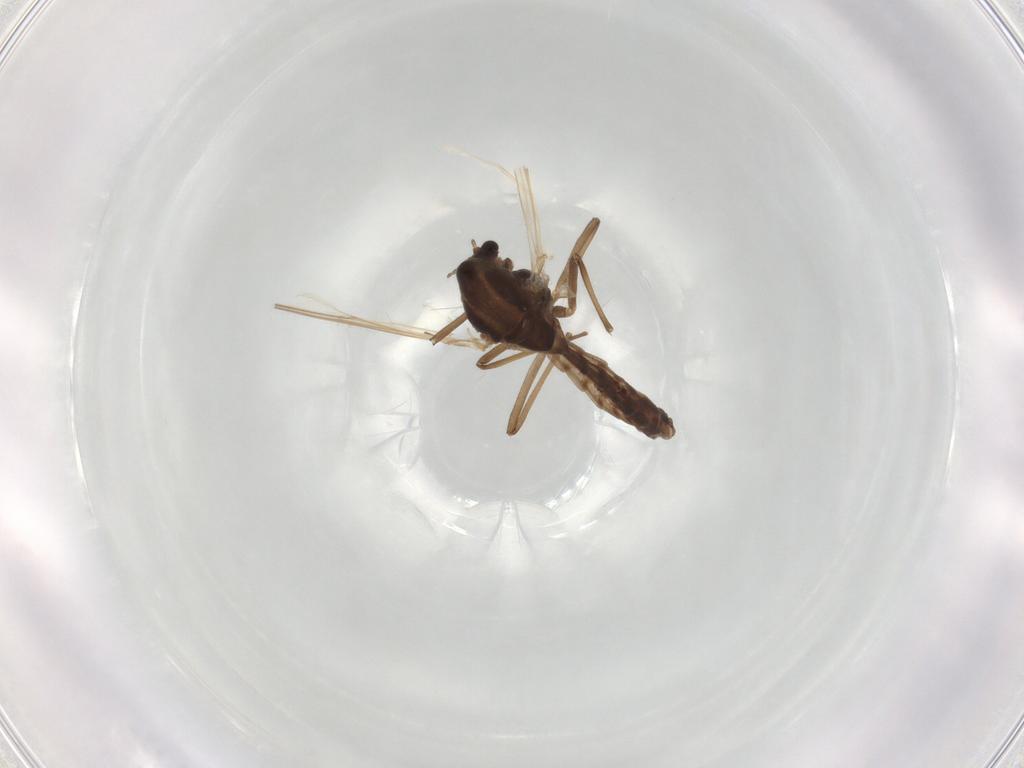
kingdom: Animalia
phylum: Arthropoda
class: Insecta
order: Diptera
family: Chironomidae
